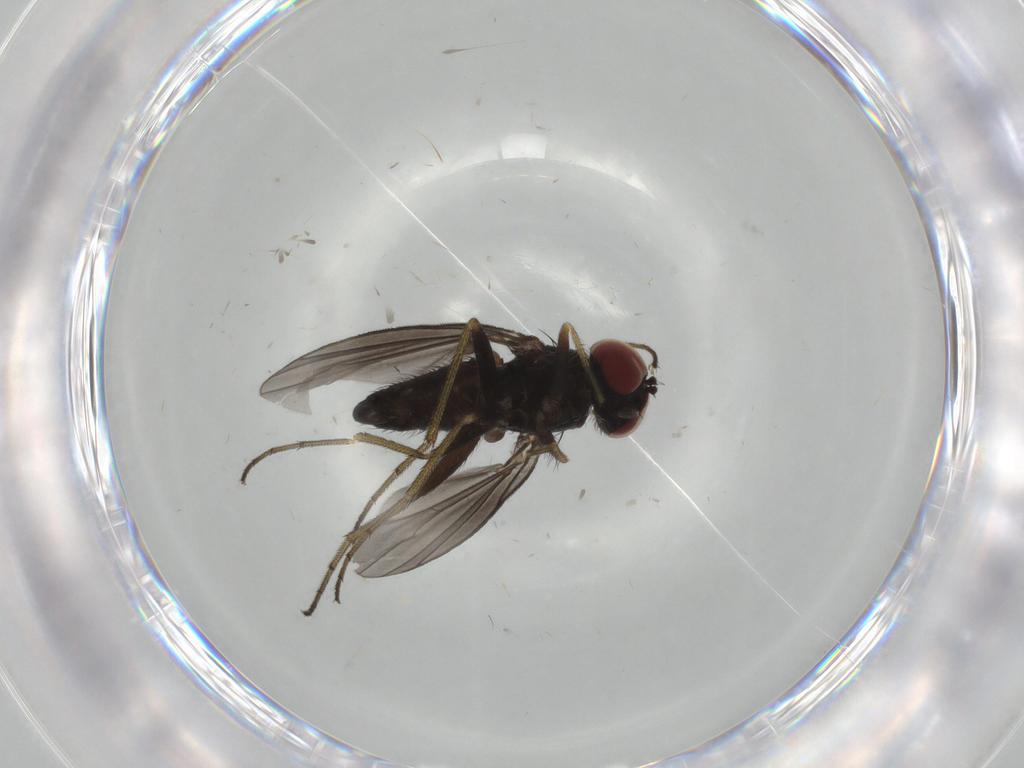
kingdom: Animalia
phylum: Arthropoda
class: Insecta
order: Diptera
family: Dolichopodidae
